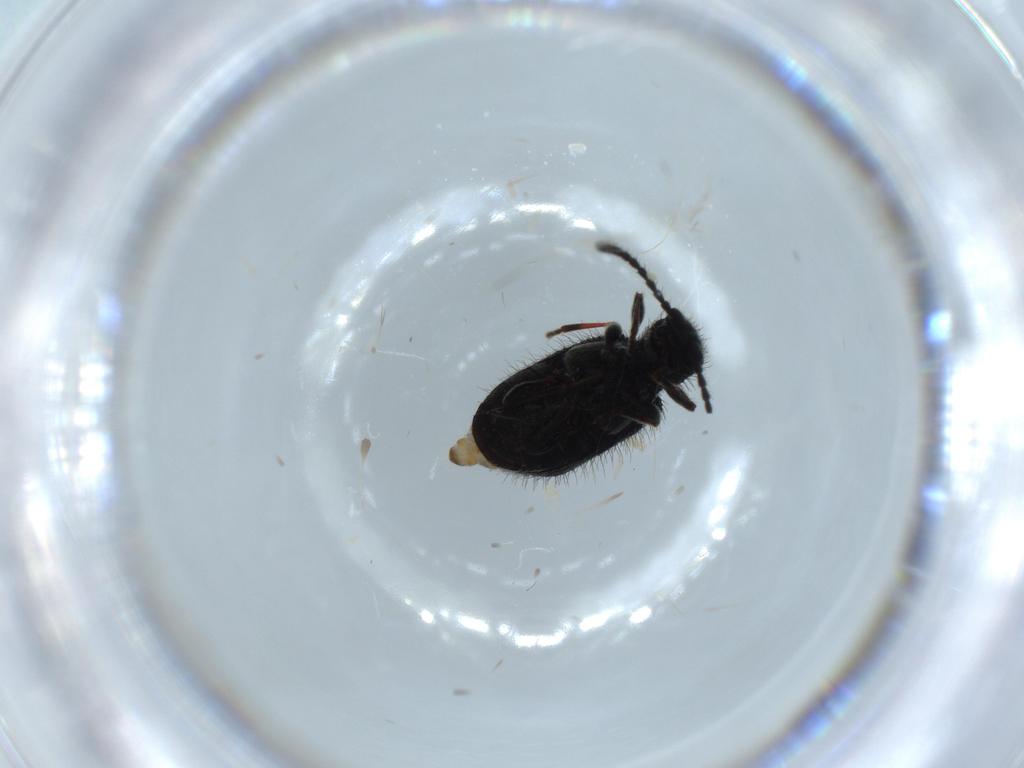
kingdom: Animalia
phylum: Arthropoda
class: Insecta
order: Coleoptera
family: Ptinidae
